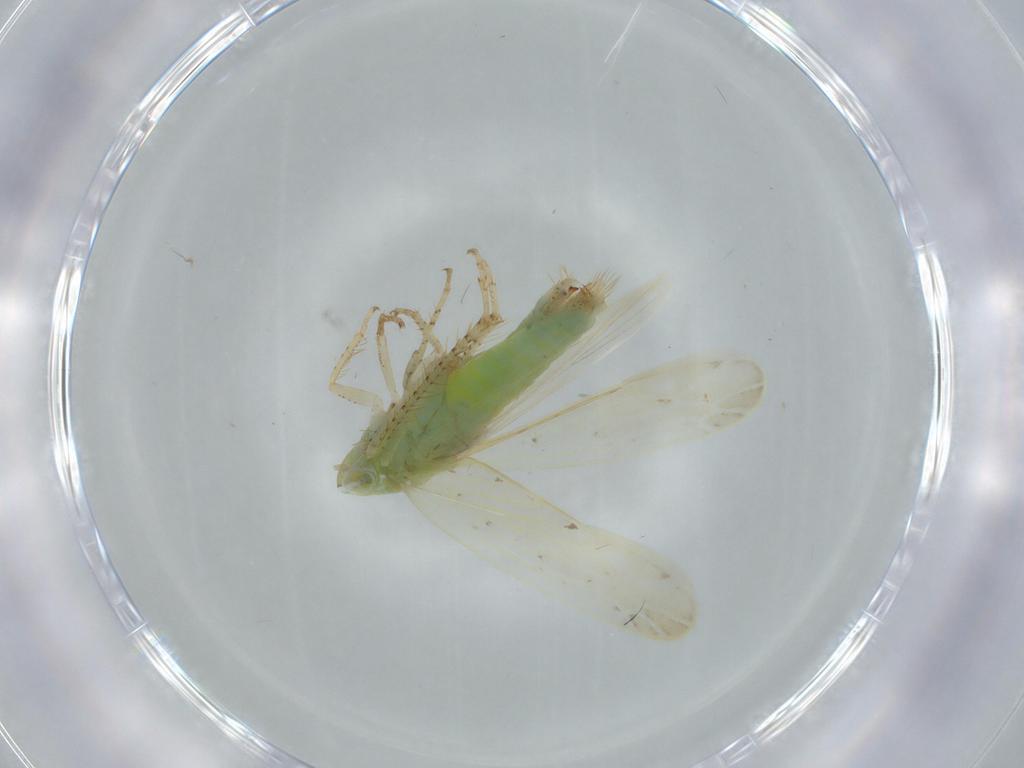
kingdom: Animalia
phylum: Arthropoda
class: Insecta
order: Hemiptera
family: Cicadellidae
